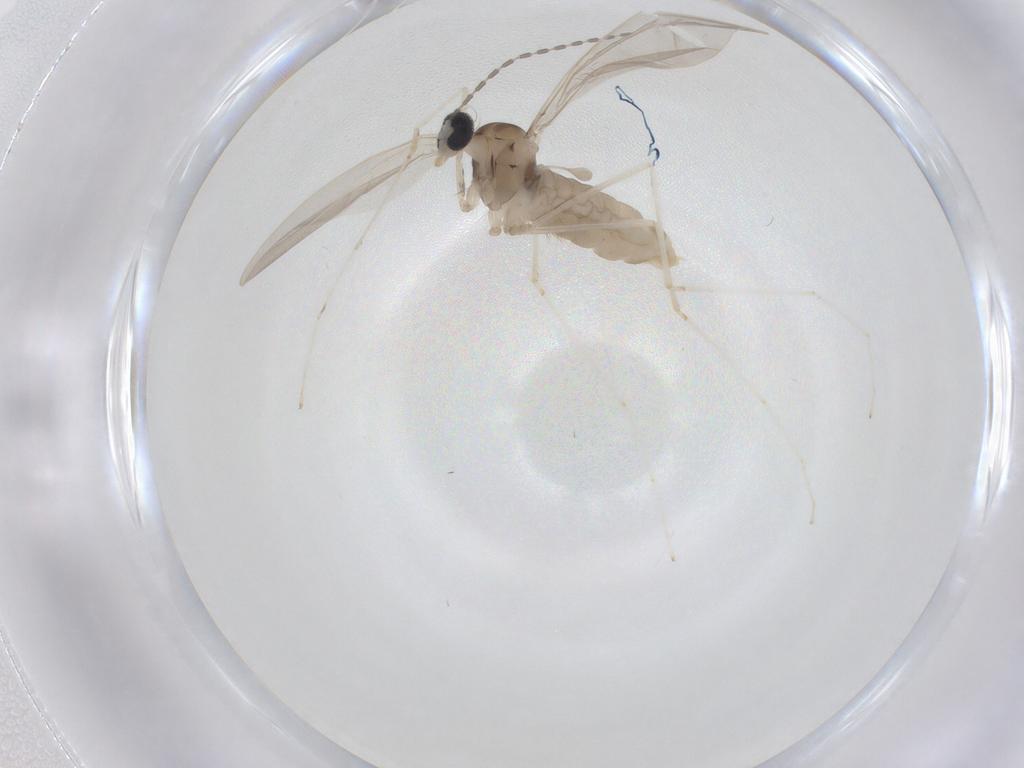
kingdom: Animalia
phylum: Arthropoda
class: Insecta
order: Diptera
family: Cecidomyiidae
